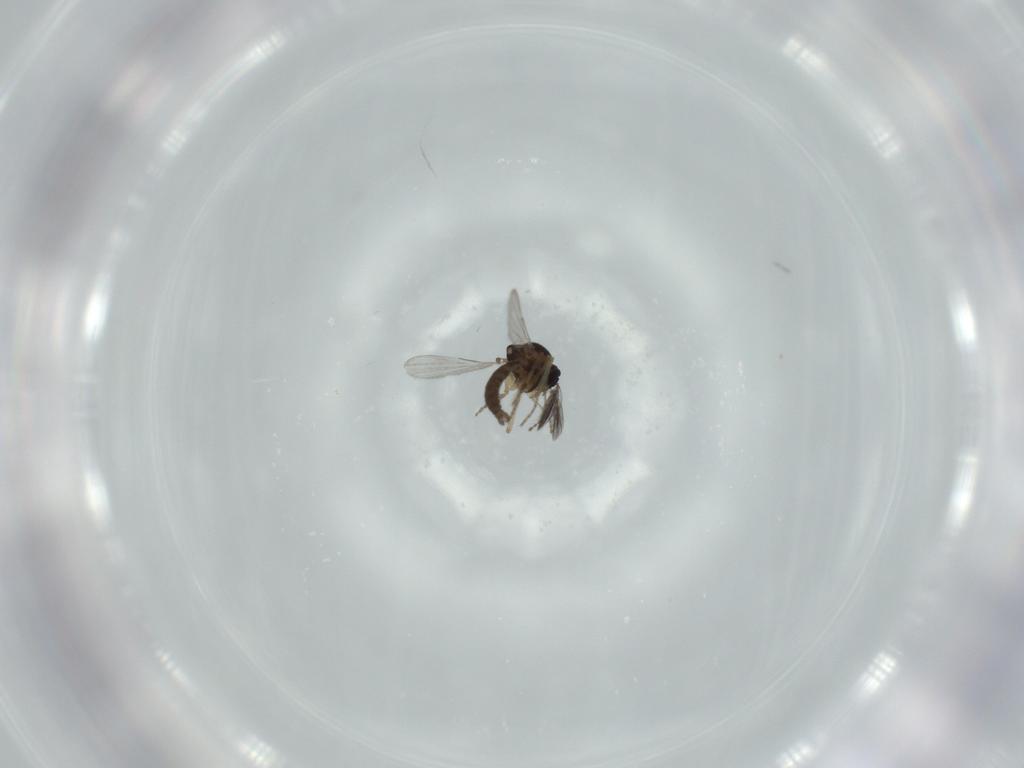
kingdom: Animalia
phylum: Arthropoda
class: Insecta
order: Diptera
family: Ceratopogonidae
